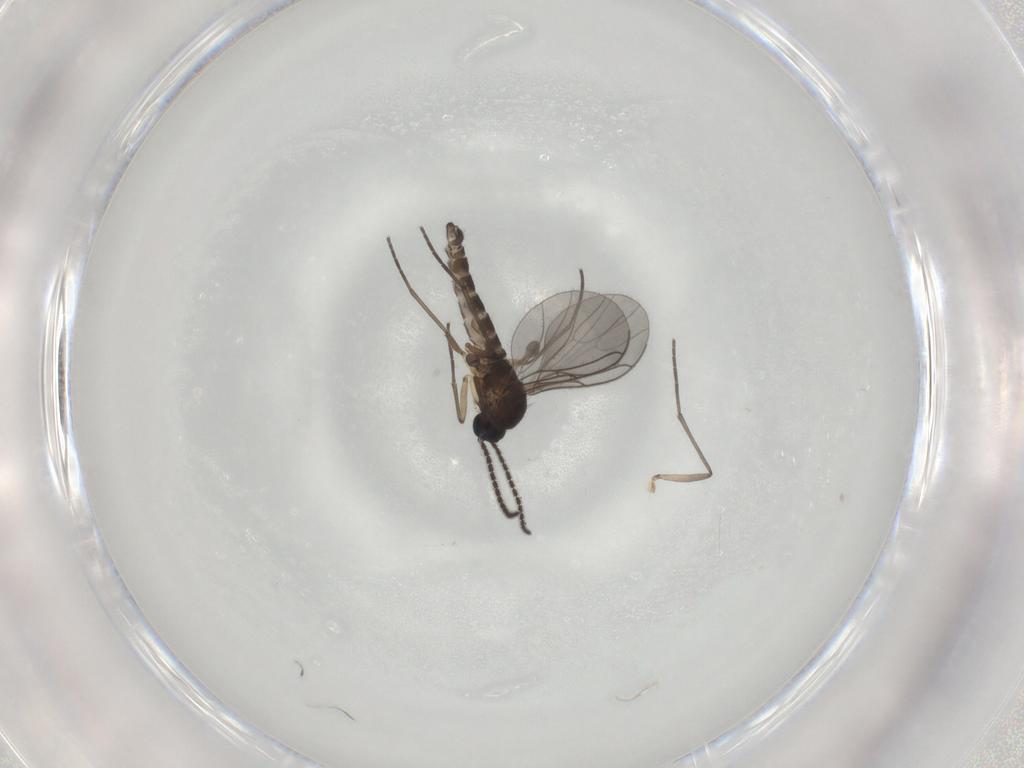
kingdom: Animalia
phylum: Arthropoda
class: Insecta
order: Diptera
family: Sciaridae
